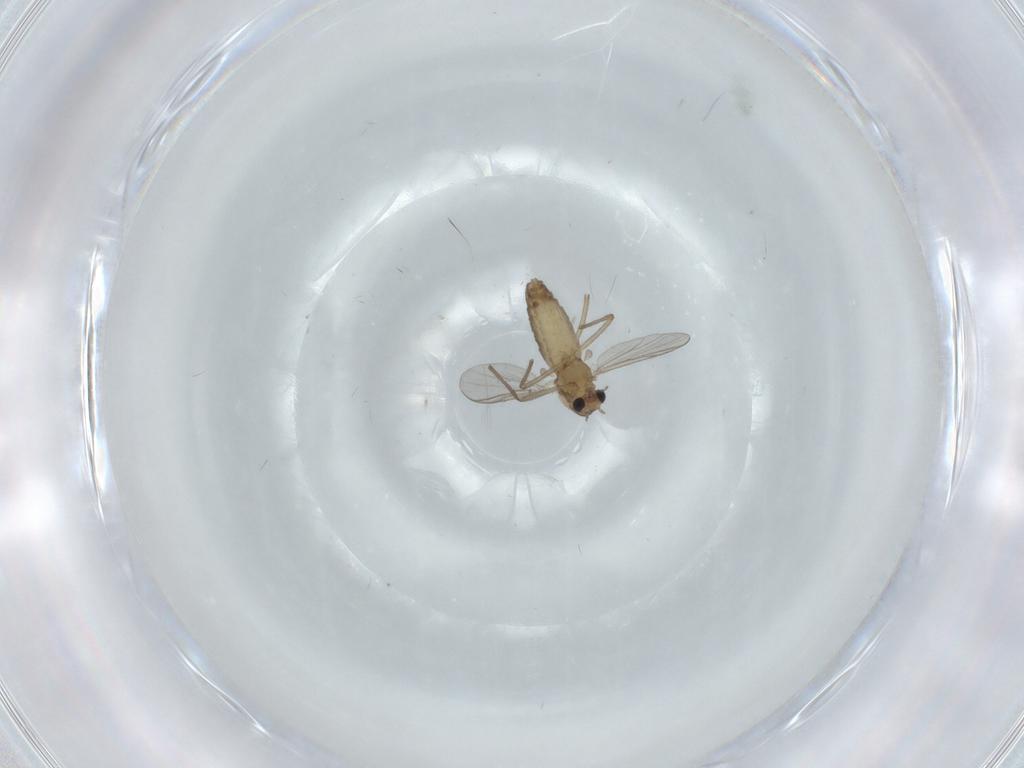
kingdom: Animalia
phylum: Arthropoda
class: Insecta
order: Diptera
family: Chironomidae
